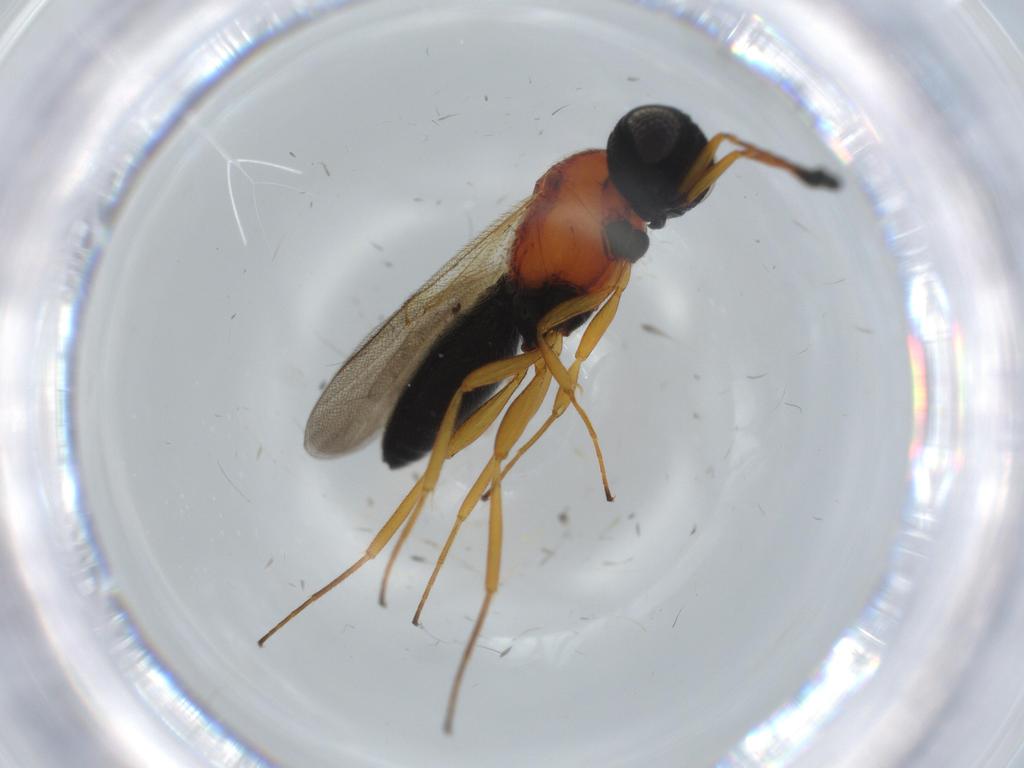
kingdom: Animalia
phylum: Arthropoda
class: Insecta
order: Hymenoptera
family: Scelionidae
